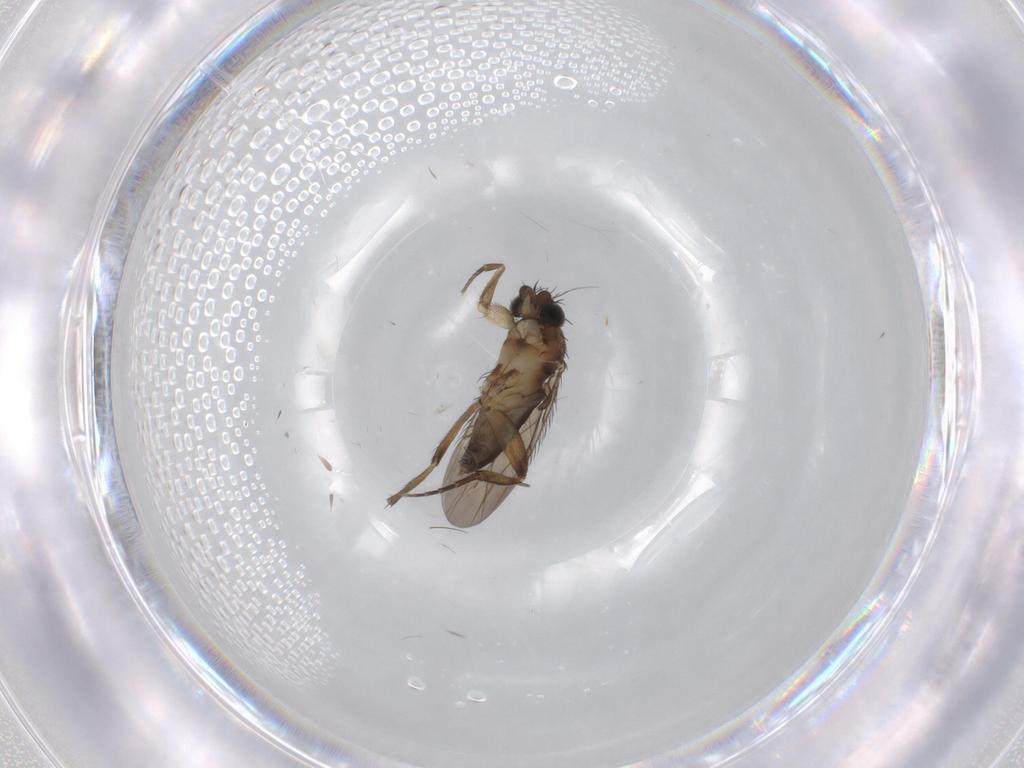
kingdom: Animalia
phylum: Arthropoda
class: Insecta
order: Diptera
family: Phoridae
